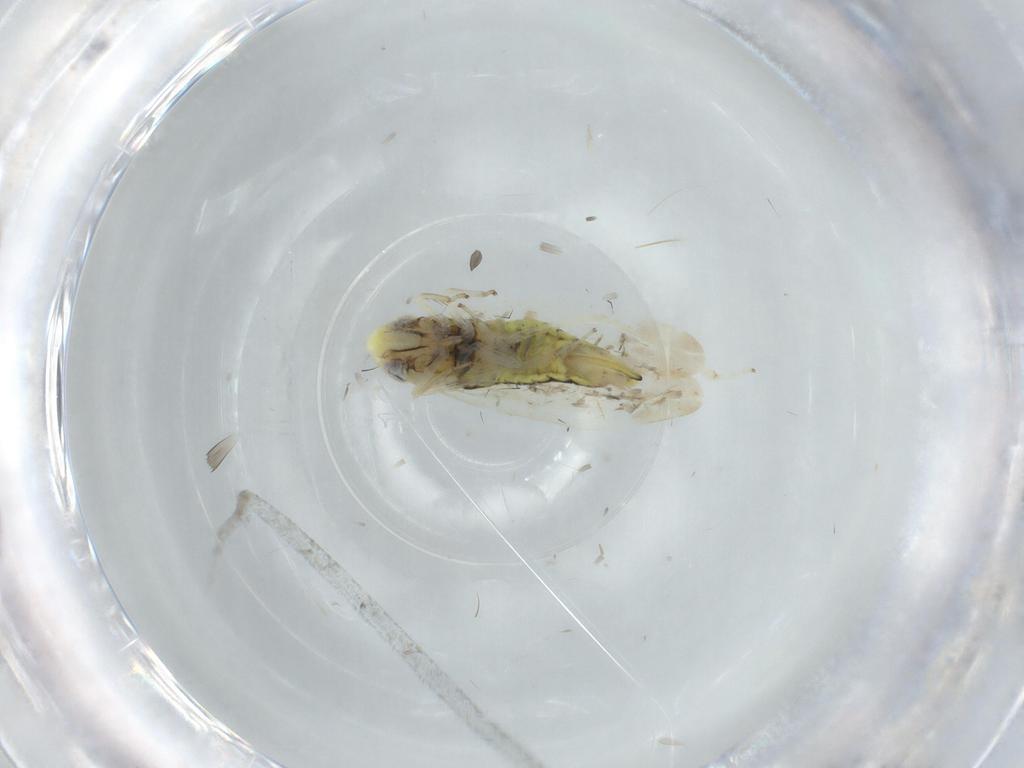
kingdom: Animalia
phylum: Arthropoda
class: Insecta
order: Hemiptera
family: Cicadellidae
